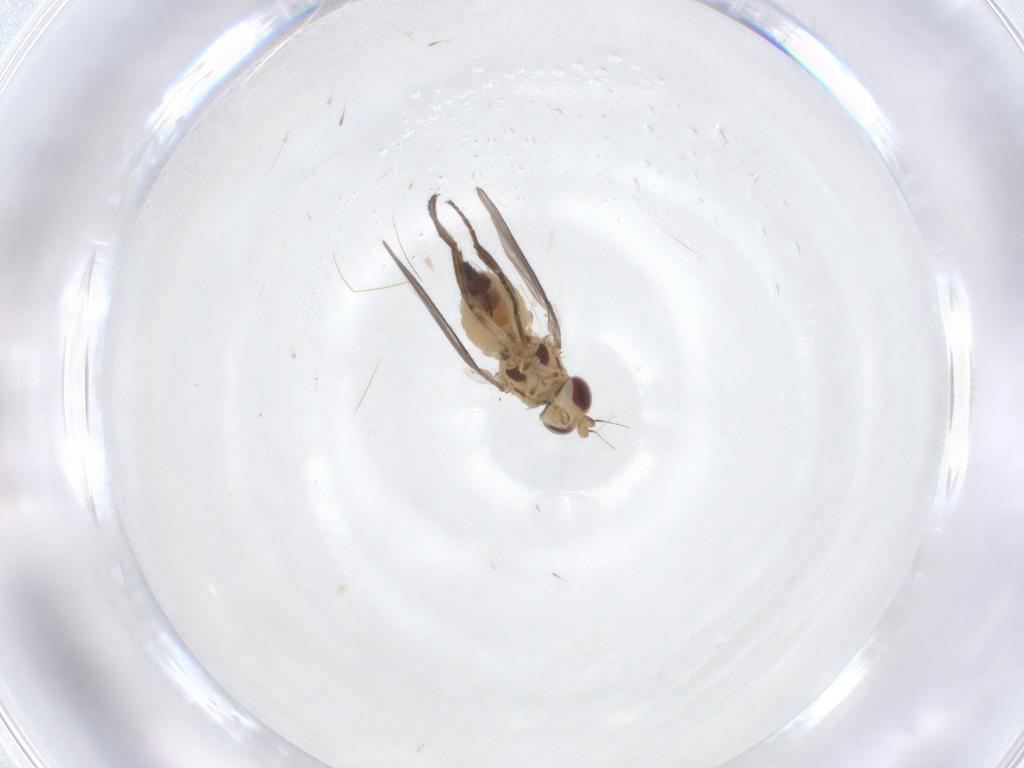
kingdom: Animalia
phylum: Arthropoda
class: Insecta
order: Diptera
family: Agromyzidae
